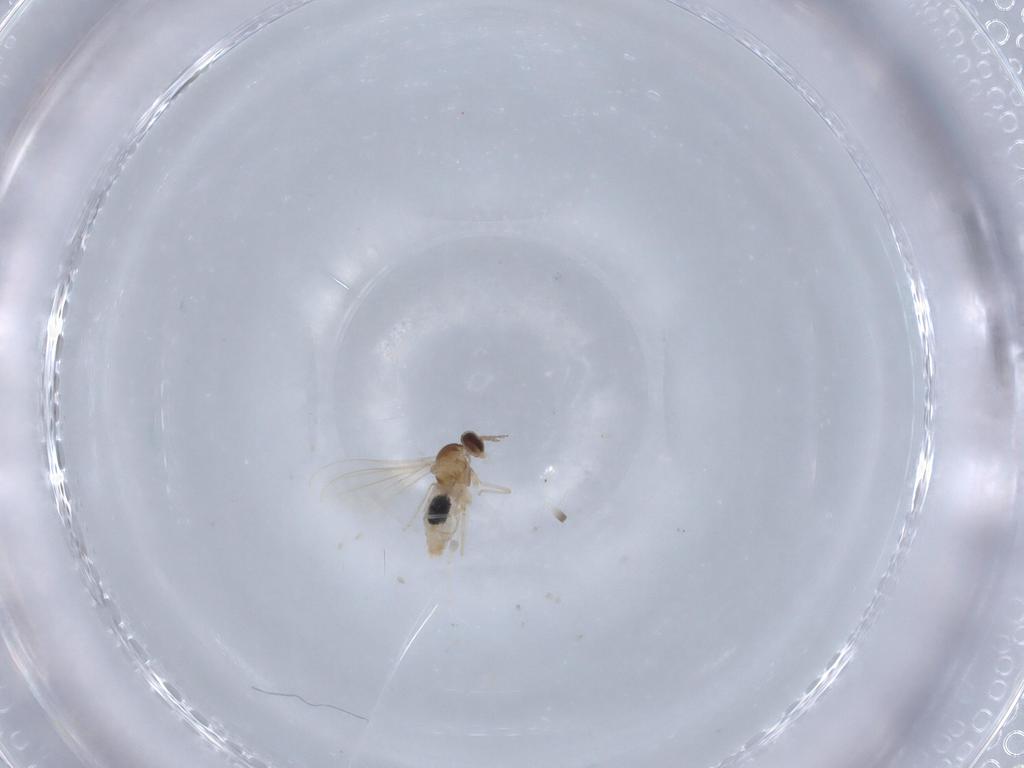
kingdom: Animalia
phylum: Arthropoda
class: Insecta
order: Diptera
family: Cecidomyiidae
